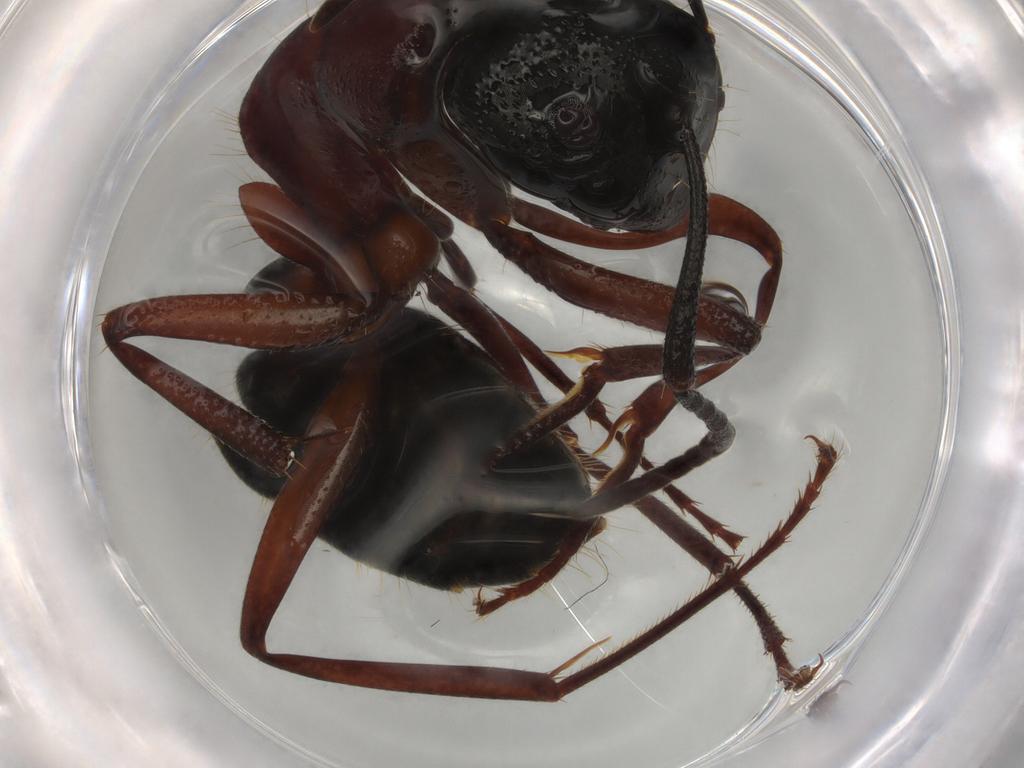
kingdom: Animalia
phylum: Arthropoda
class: Insecta
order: Hymenoptera
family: Formicidae
